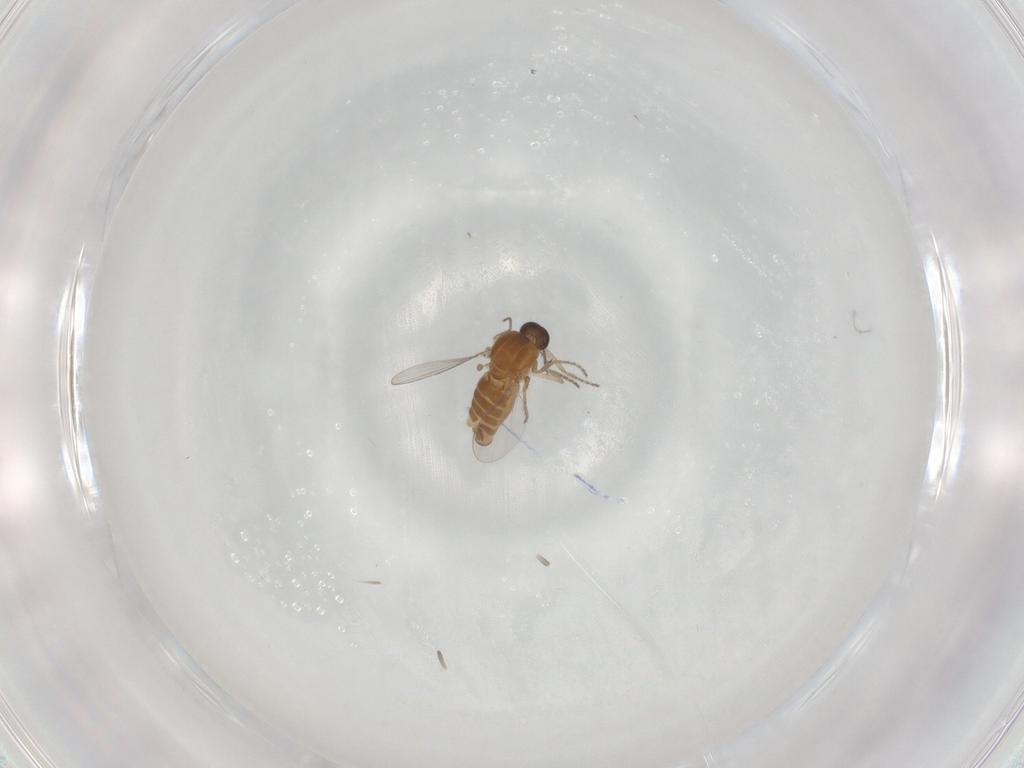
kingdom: Animalia
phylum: Arthropoda
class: Insecta
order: Diptera
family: Ceratopogonidae
